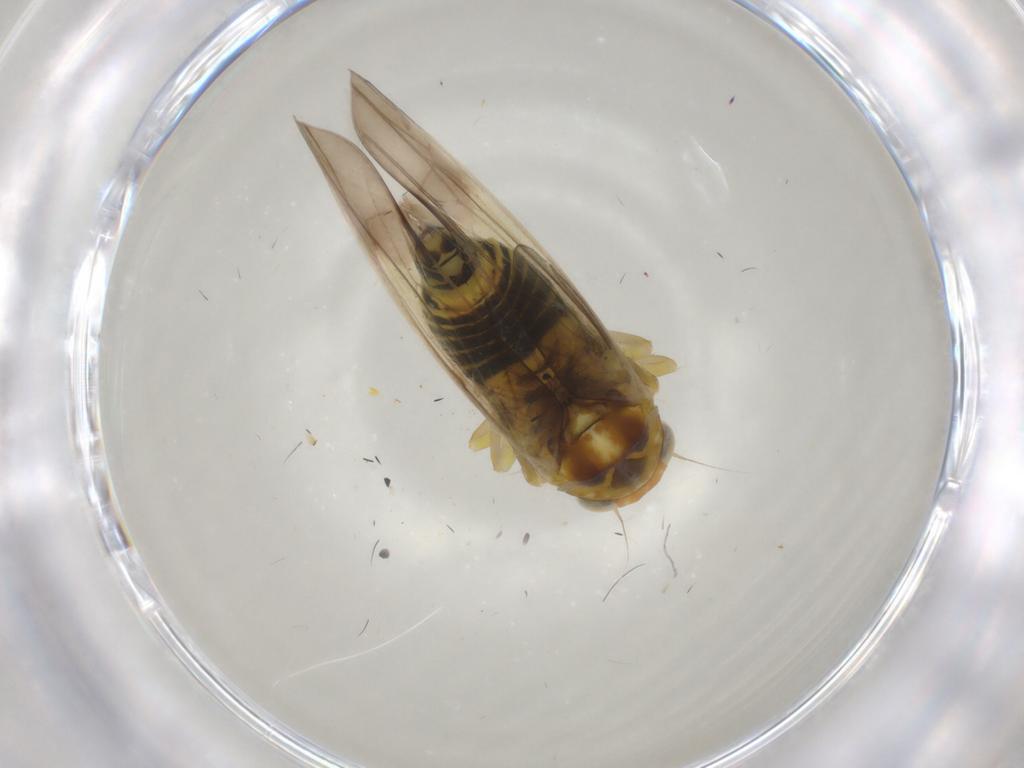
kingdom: Animalia
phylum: Arthropoda
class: Insecta
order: Hemiptera
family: Cicadellidae
